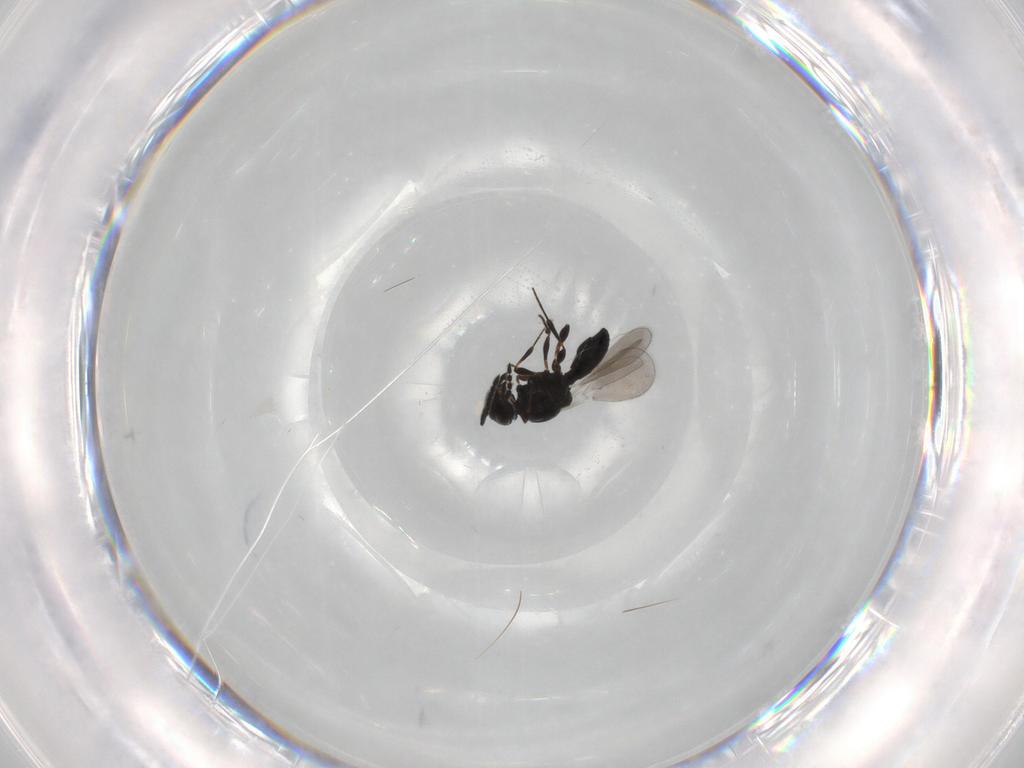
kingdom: Animalia
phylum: Arthropoda
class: Insecta
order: Hymenoptera
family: Platygastridae
